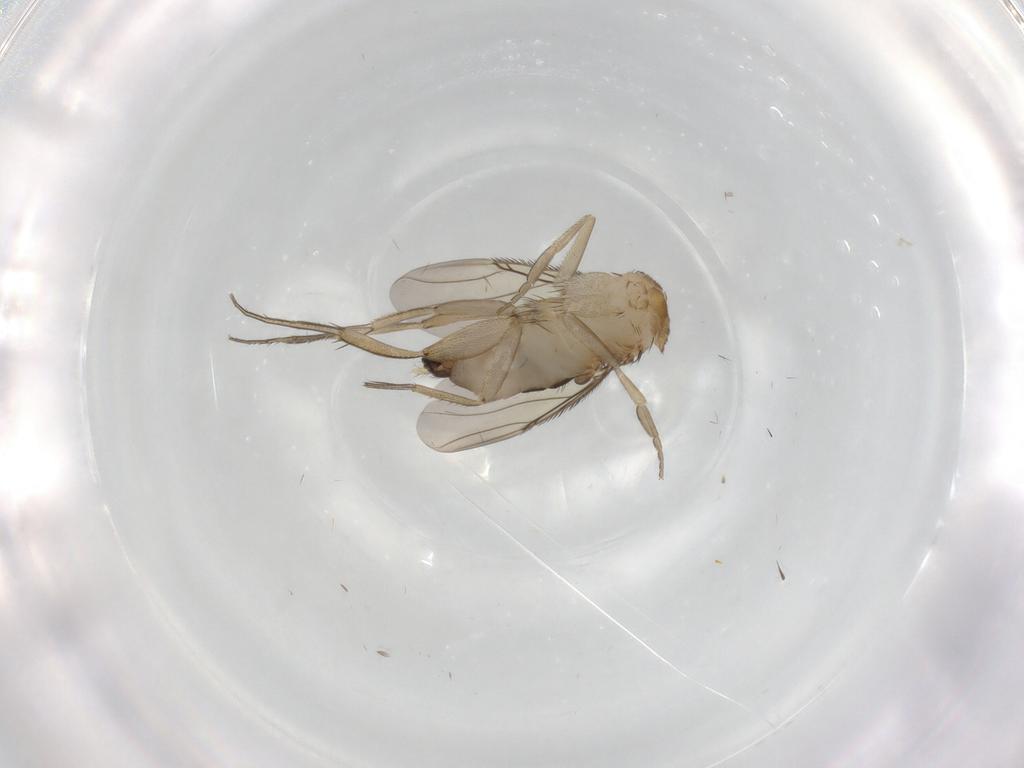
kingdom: Animalia
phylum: Arthropoda
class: Insecta
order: Diptera
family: Phoridae
